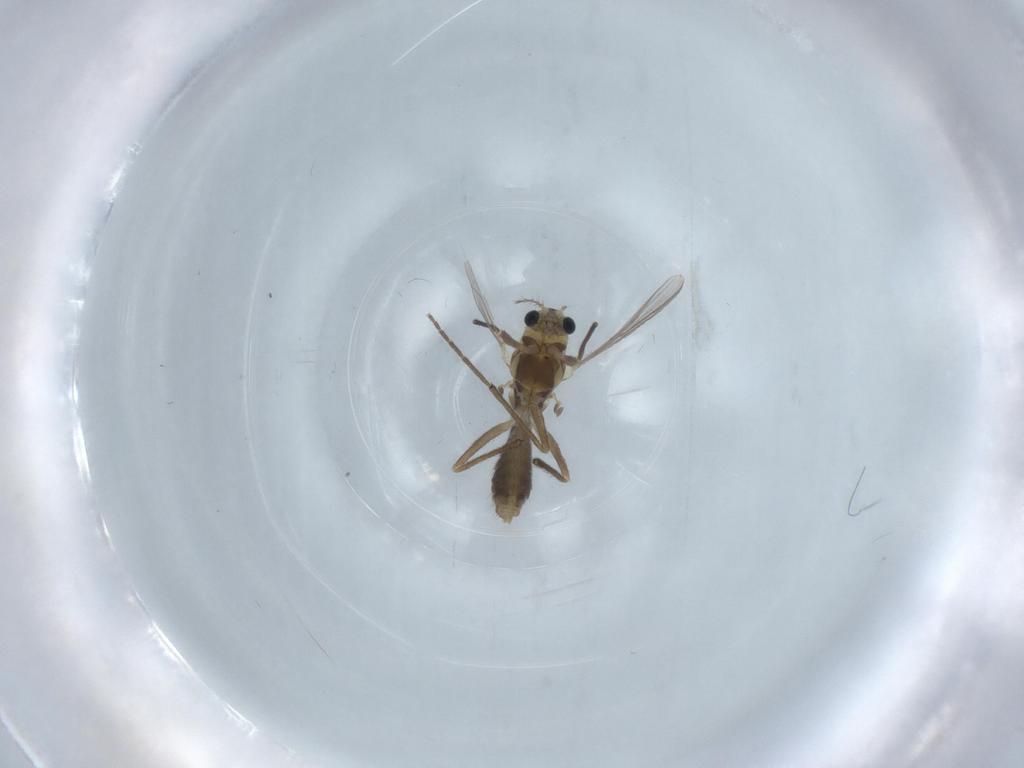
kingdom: Animalia
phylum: Arthropoda
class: Insecta
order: Diptera
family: Chironomidae
